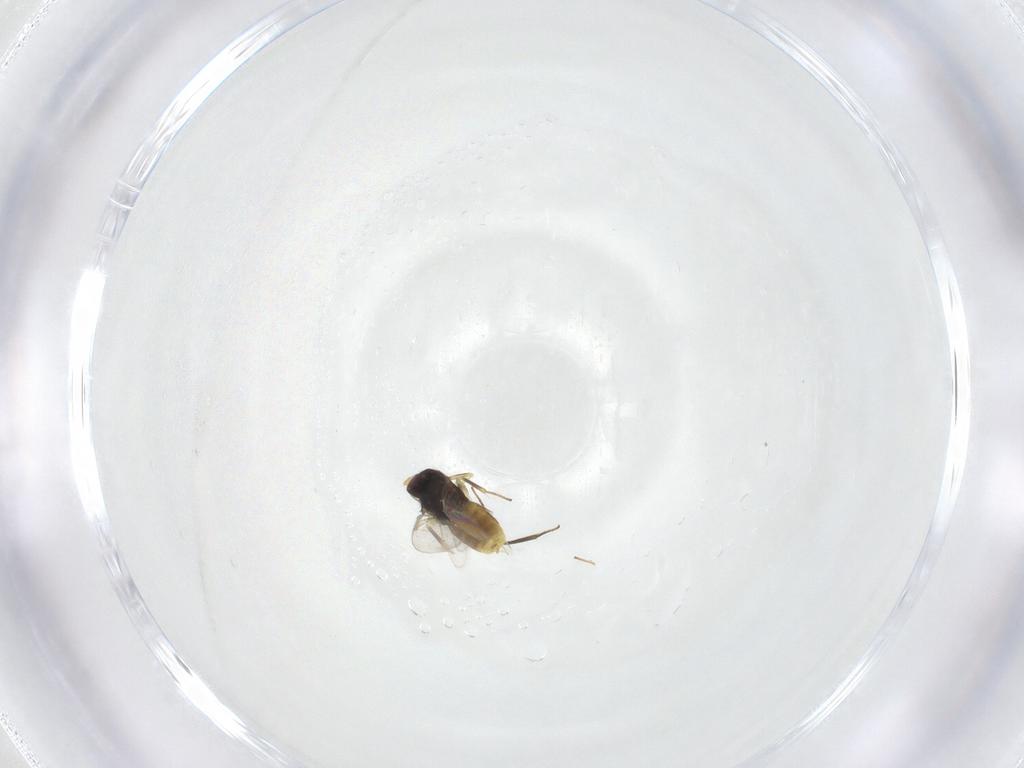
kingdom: Animalia
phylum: Arthropoda
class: Insecta
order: Hymenoptera
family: Aphelinidae
